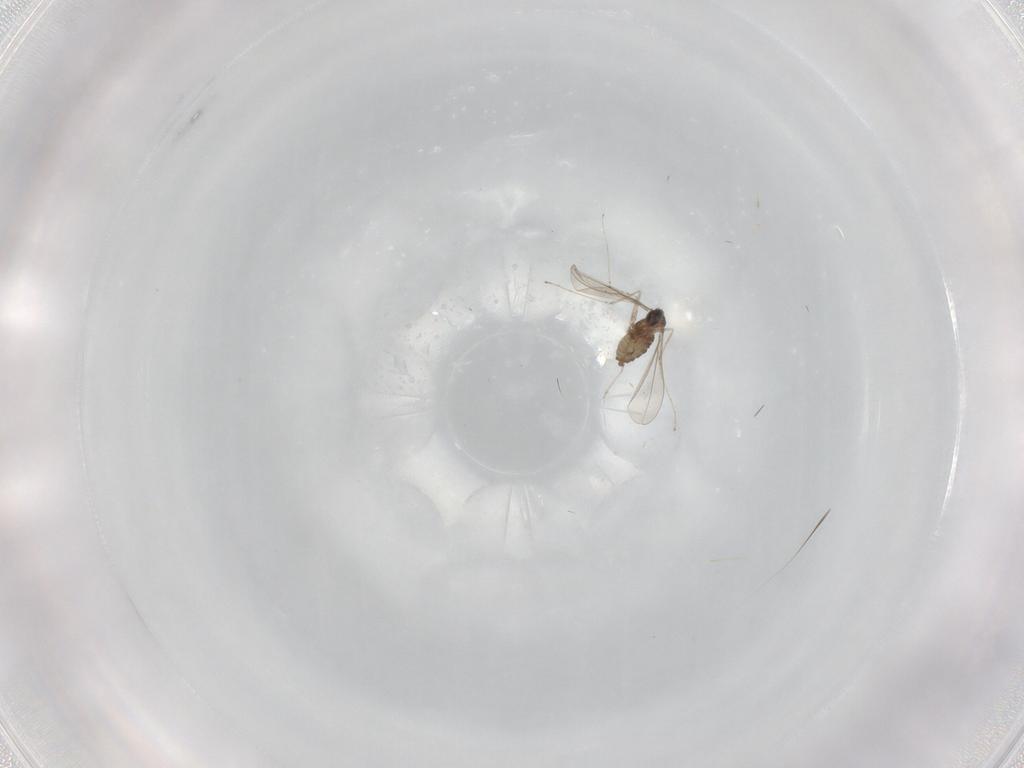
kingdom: Animalia
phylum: Arthropoda
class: Insecta
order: Diptera
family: Cecidomyiidae
